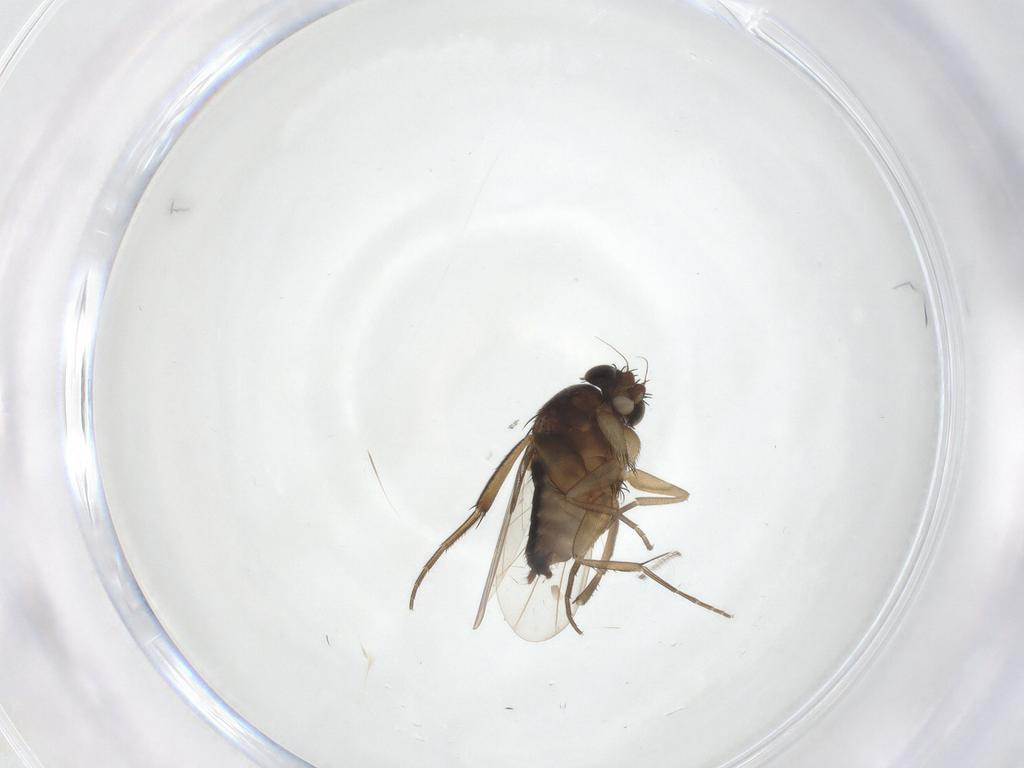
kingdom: Animalia
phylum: Arthropoda
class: Insecta
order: Diptera
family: Phoridae
